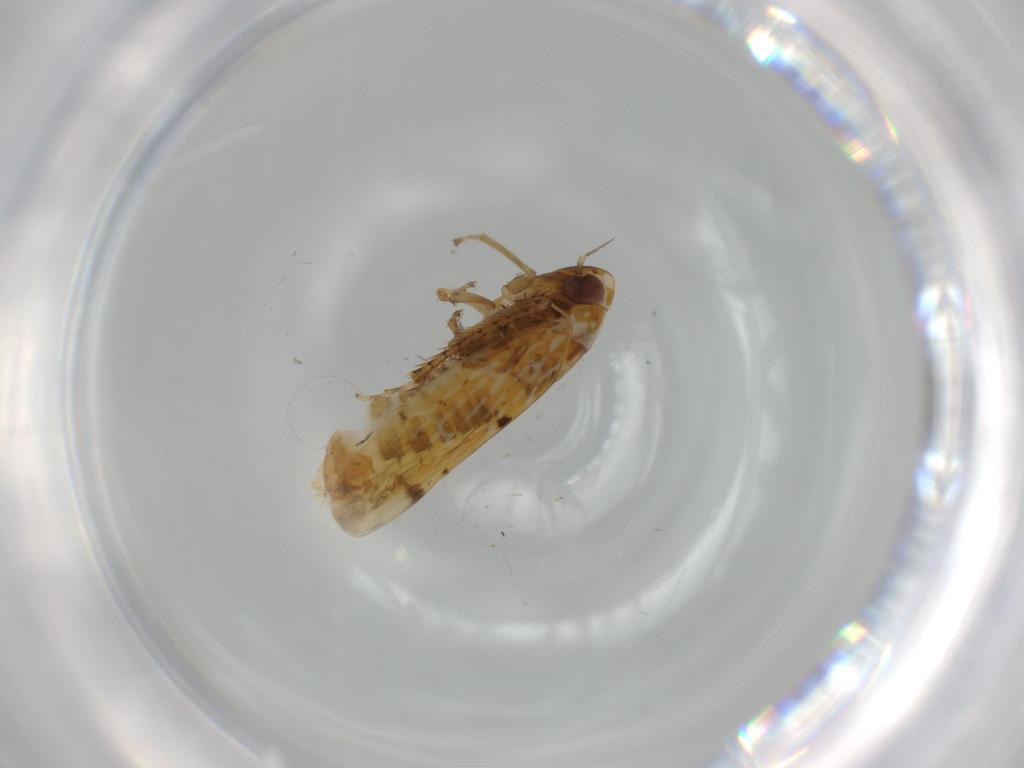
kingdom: Animalia
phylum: Arthropoda
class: Insecta
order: Hemiptera
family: Cicadellidae
